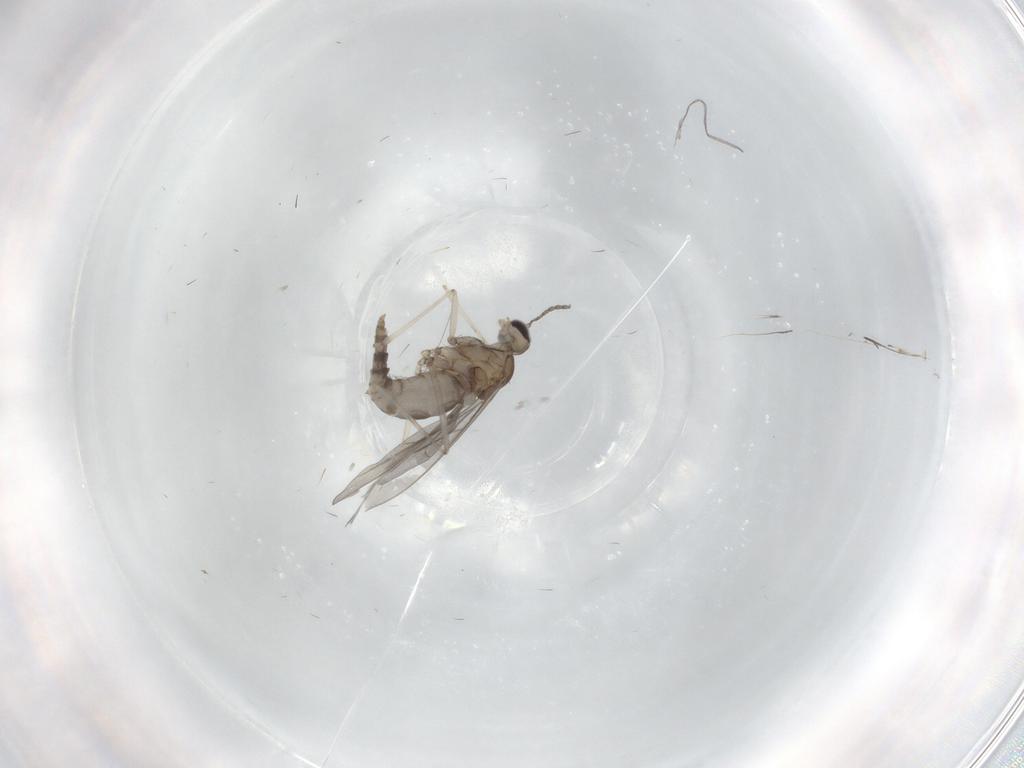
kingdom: Animalia
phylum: Arthropoda
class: Insecta
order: Diptera
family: Cecidomyiidae
